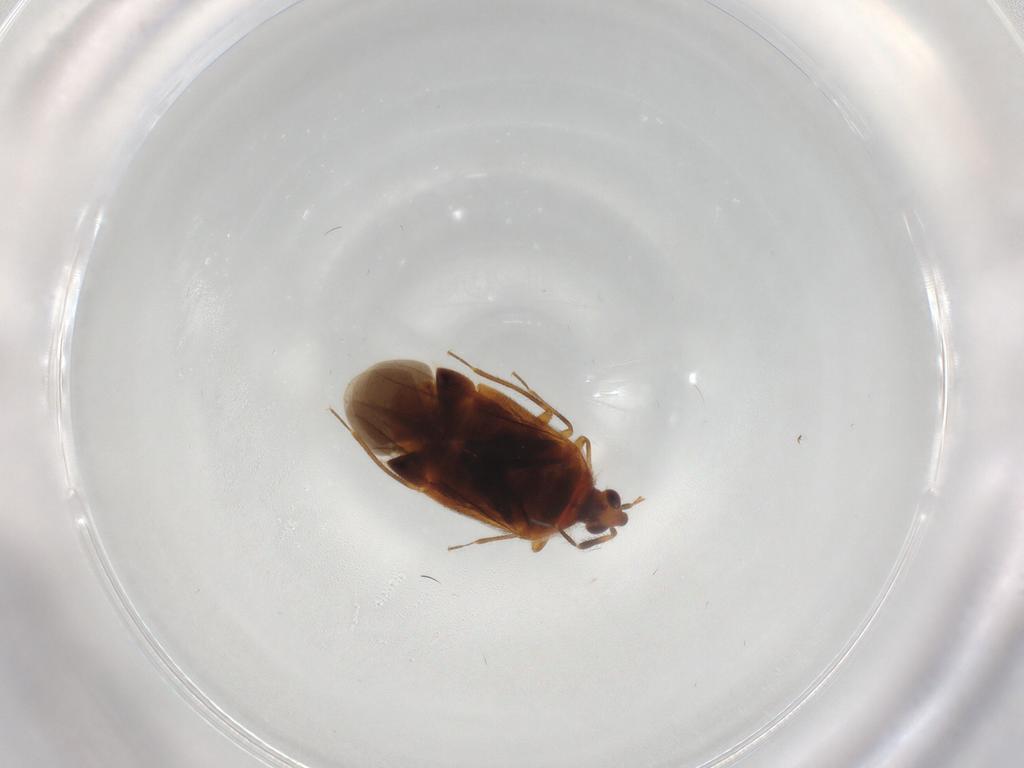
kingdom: Animalia
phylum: Arthropoda
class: Insecta
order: Hemiptera
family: Anthocoridae
